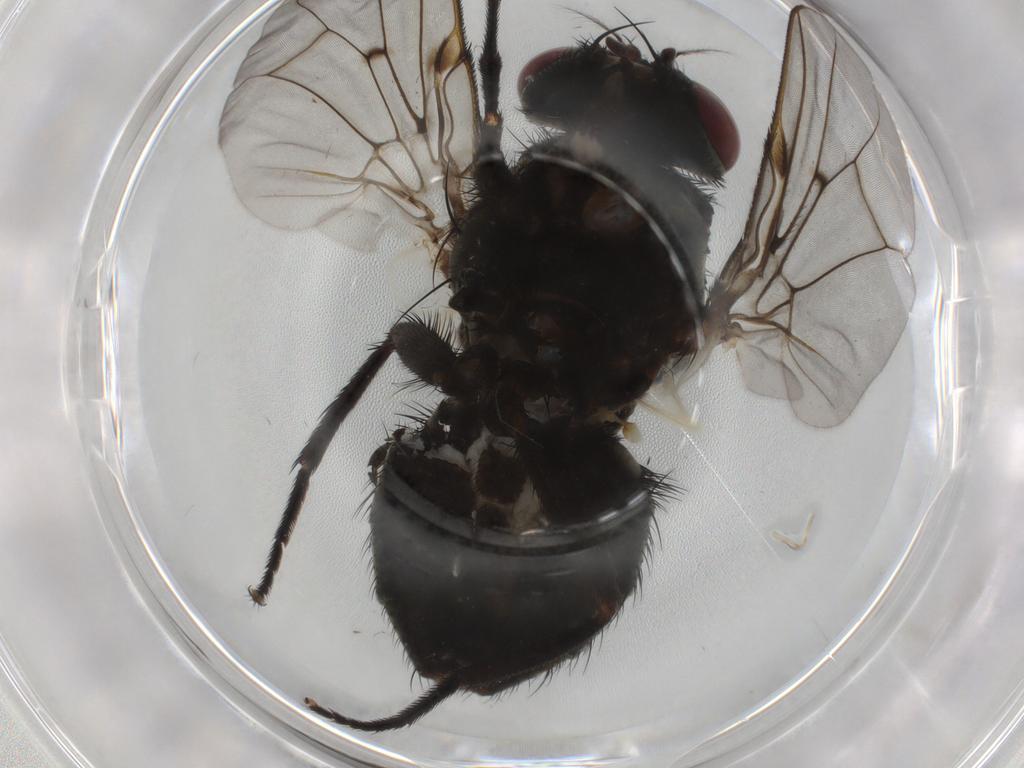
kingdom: Animalia
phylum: Arthropoda
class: Insecta
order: Diptera
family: Muscidae
